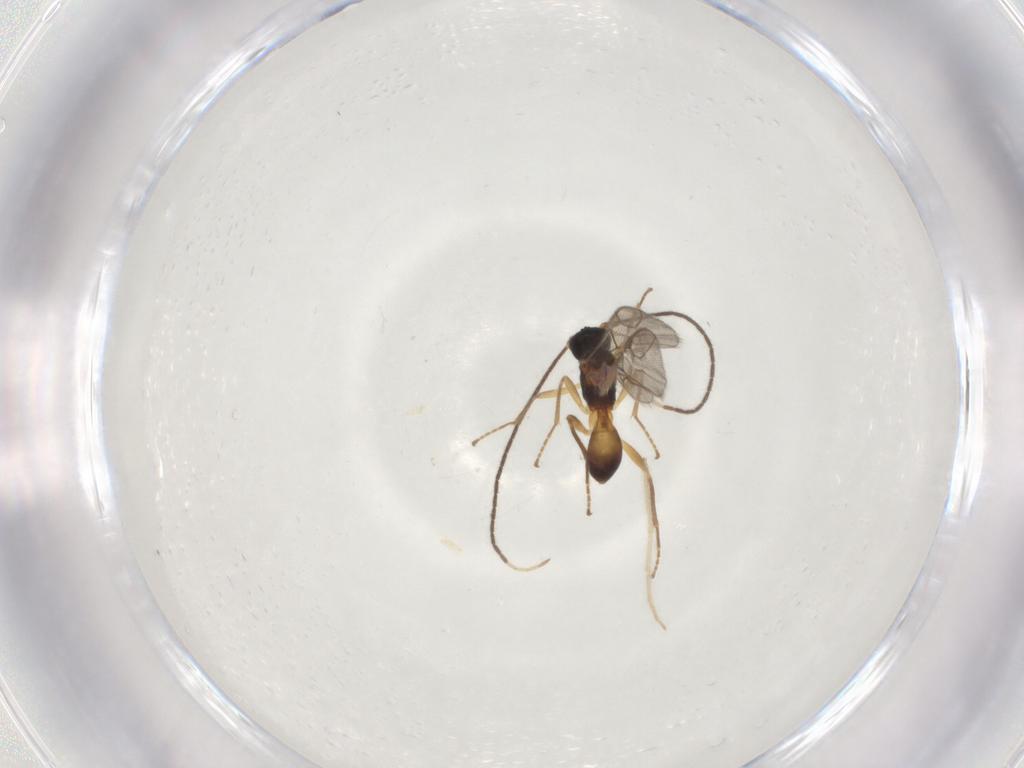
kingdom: Animalia
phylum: Arthropoda
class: Insecta
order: Hymenoptera
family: Braconidae
